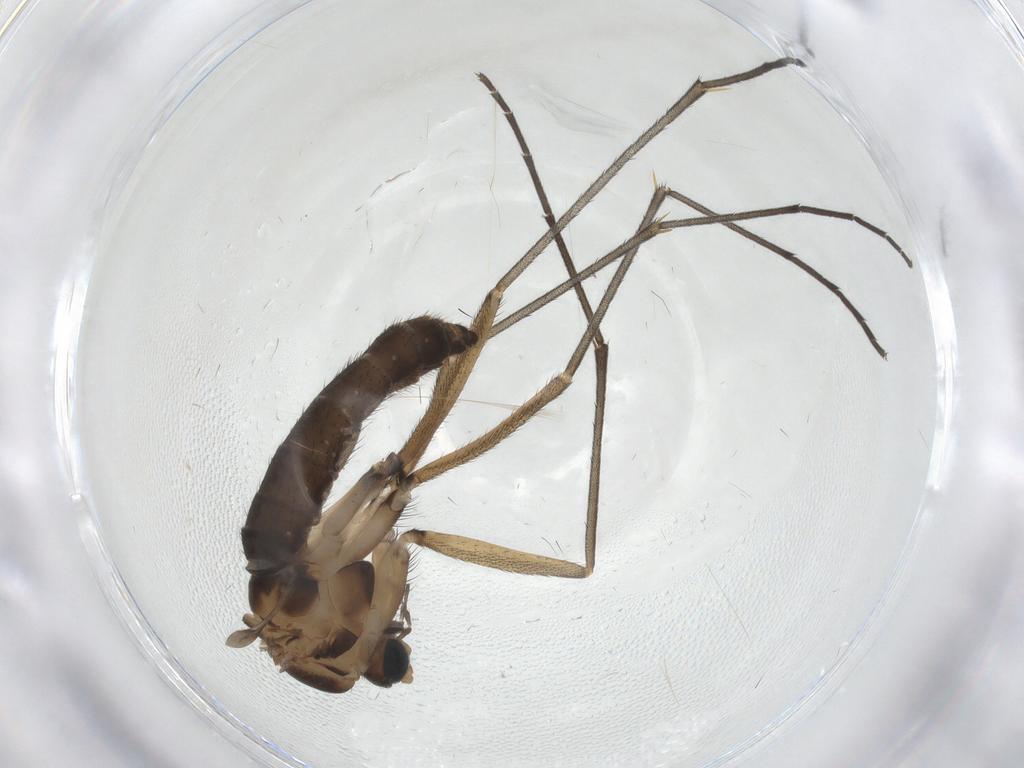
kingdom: Animalia
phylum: Arthropoda
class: Insecta
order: Diptera
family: Sciaridae
